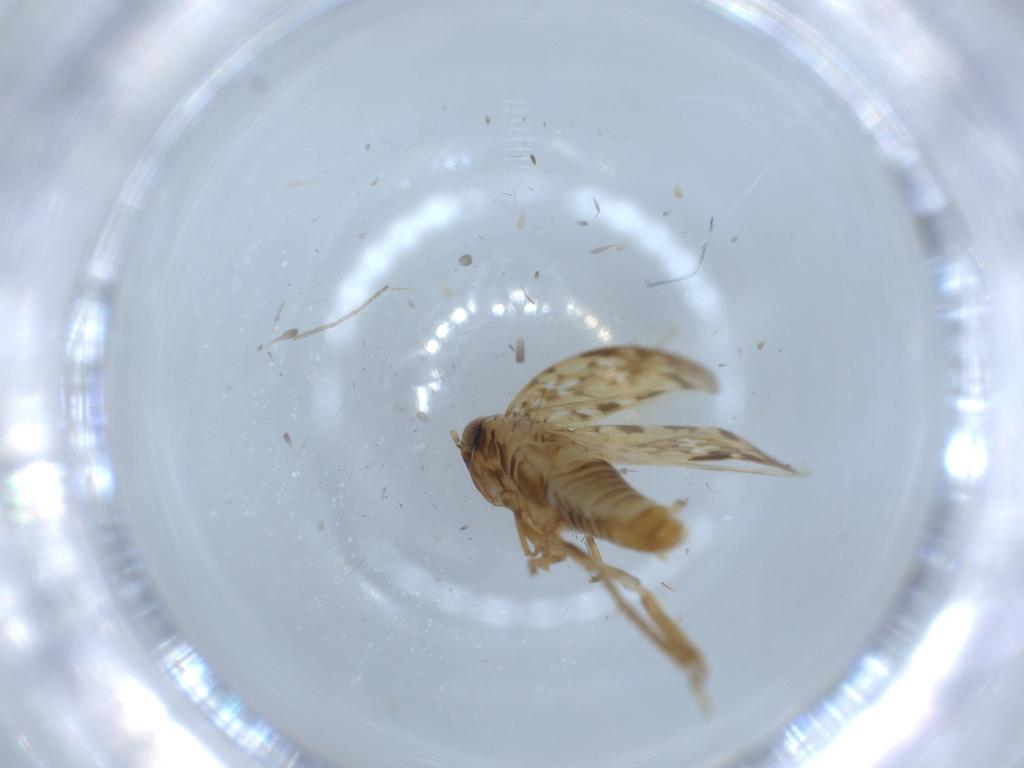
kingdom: Animalia
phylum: Arthropoda
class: Insecta
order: Hemiptera
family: Cicadellidae
